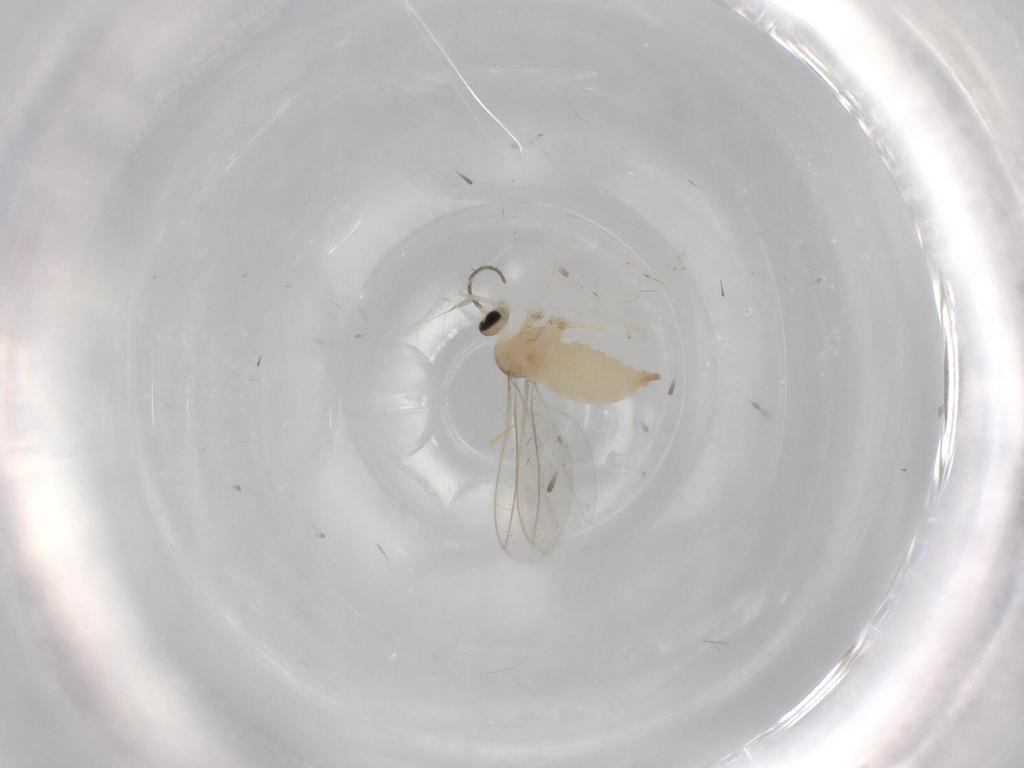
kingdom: Animalia
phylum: Arthropoda
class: Insecta
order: Diptera
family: Cecidomyiidae
